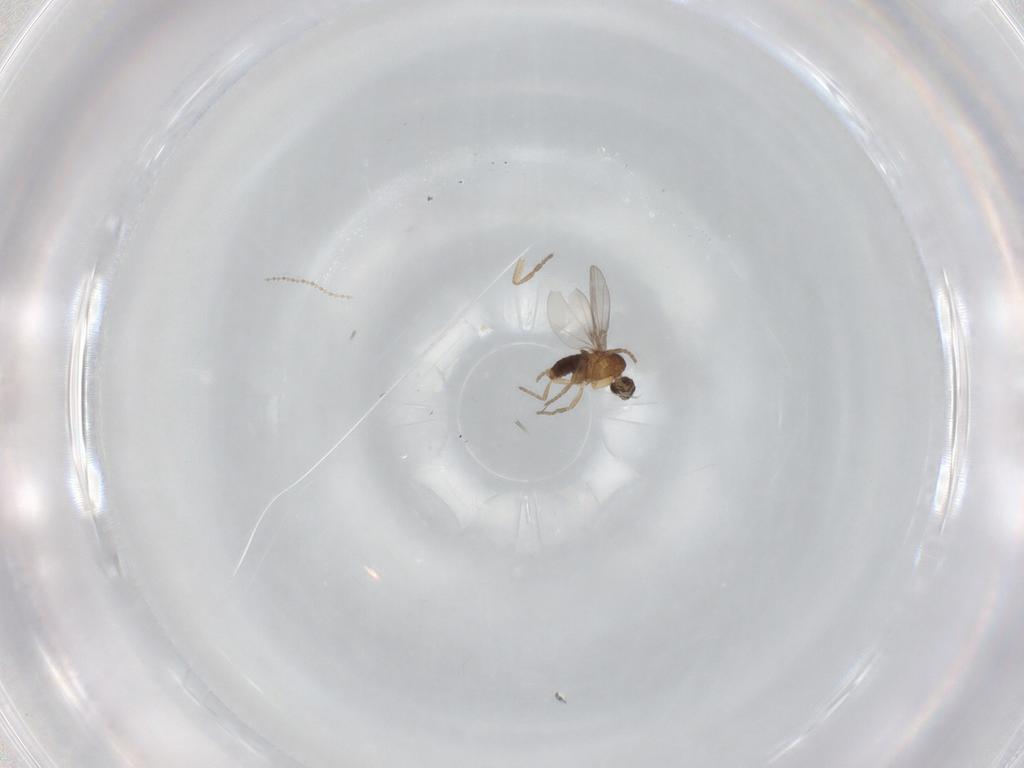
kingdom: Animalia
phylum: Arthropoda
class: Insecta
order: Diptera
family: Phoridae
